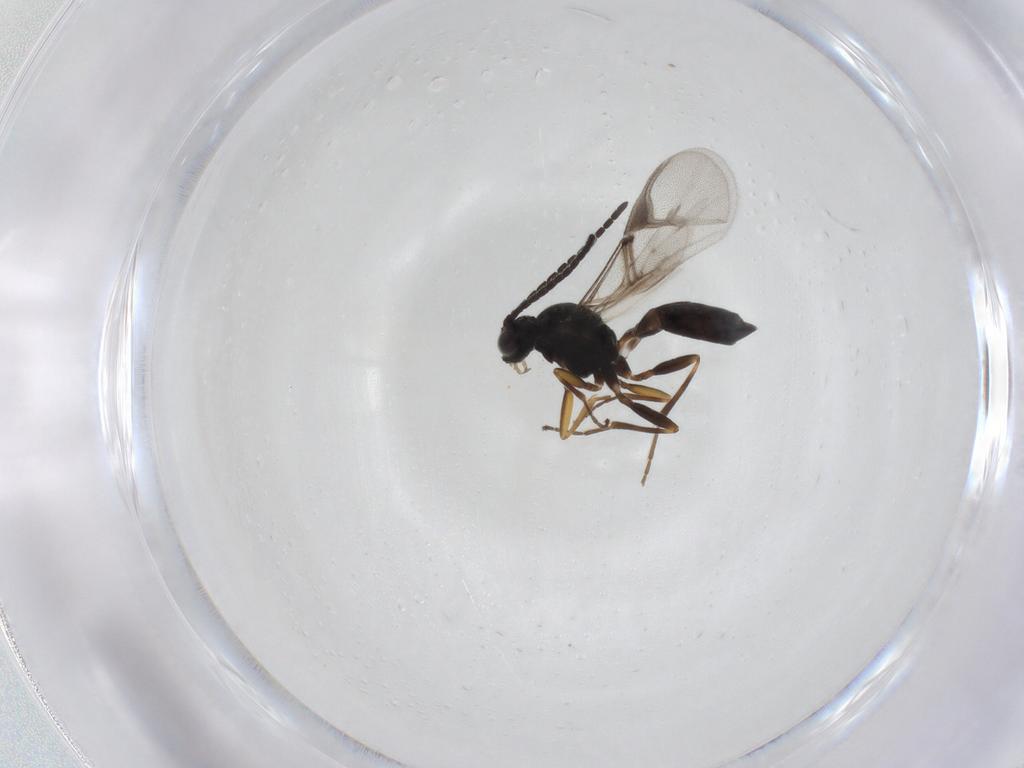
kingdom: Animalia
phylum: Arthropoda
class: Insecta
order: Hymenoptera
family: Braconidae
